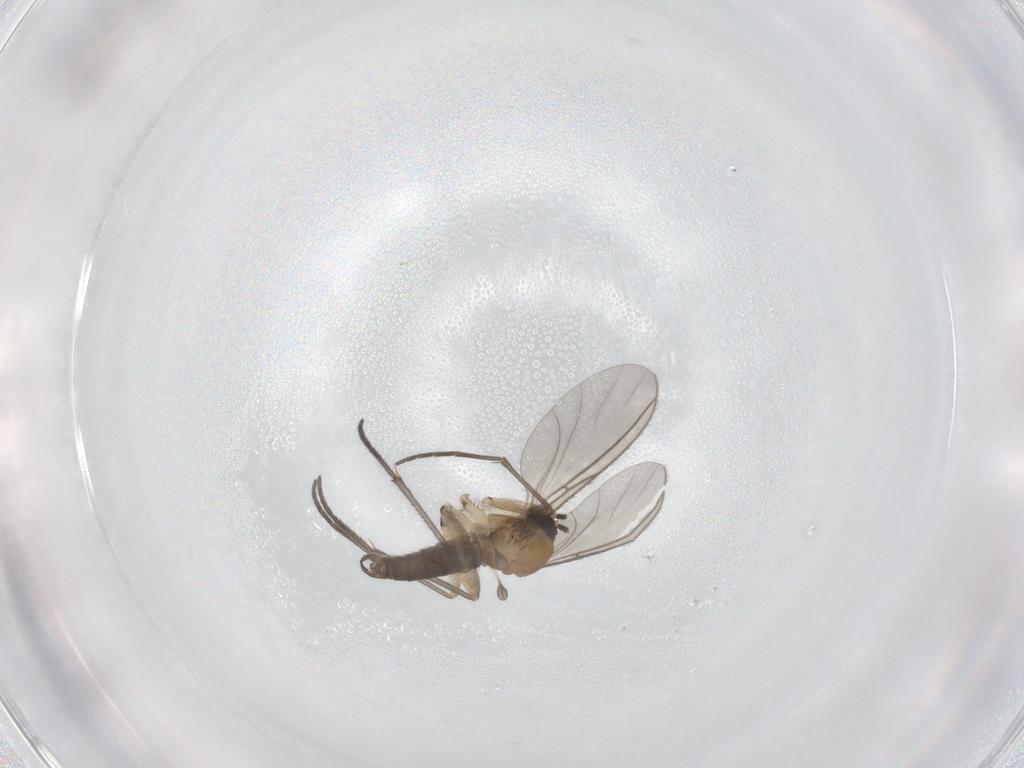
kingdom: Animalia
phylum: Arthropoda
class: Insecta
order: Diptera
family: Sciaridae
